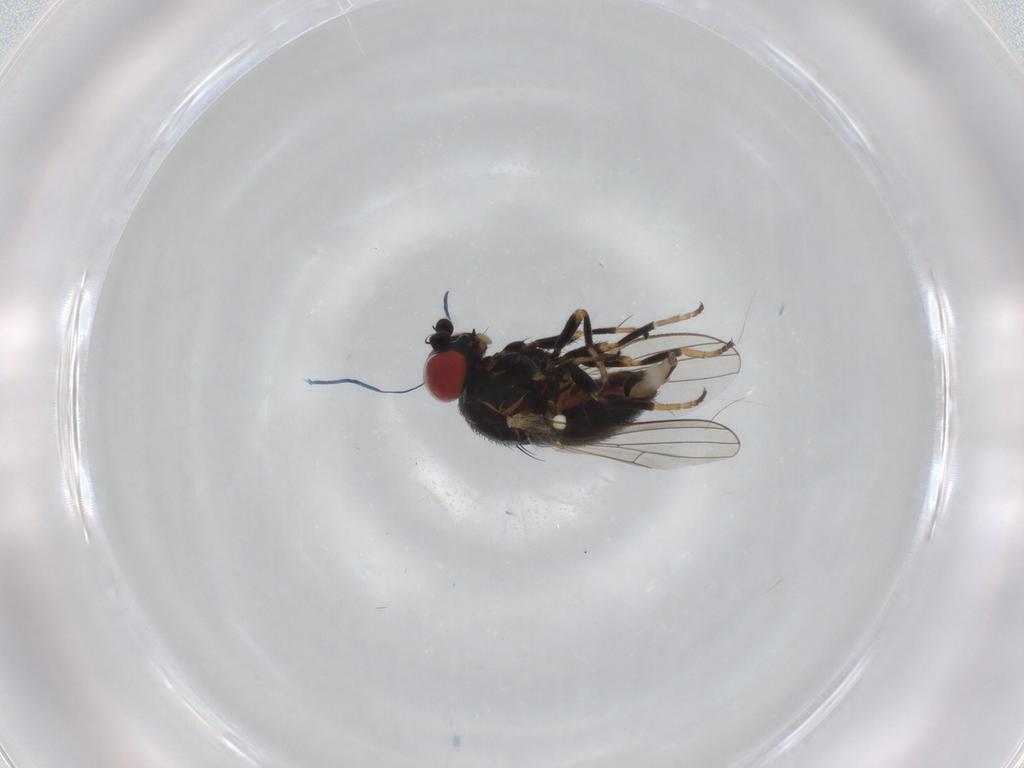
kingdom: Animalia
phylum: Arthropoda
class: Insecta
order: Diptera
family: Chamaemyiidae
